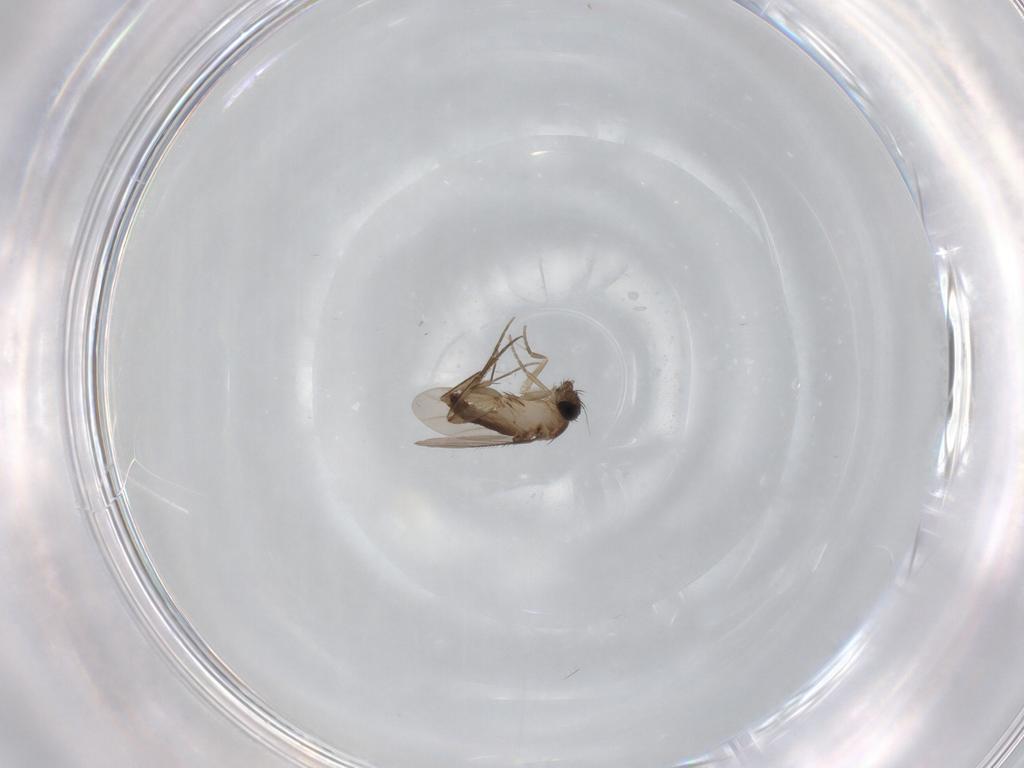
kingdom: Animalia
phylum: Arthropoda
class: Insecta
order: Diptera
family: Phoridae
